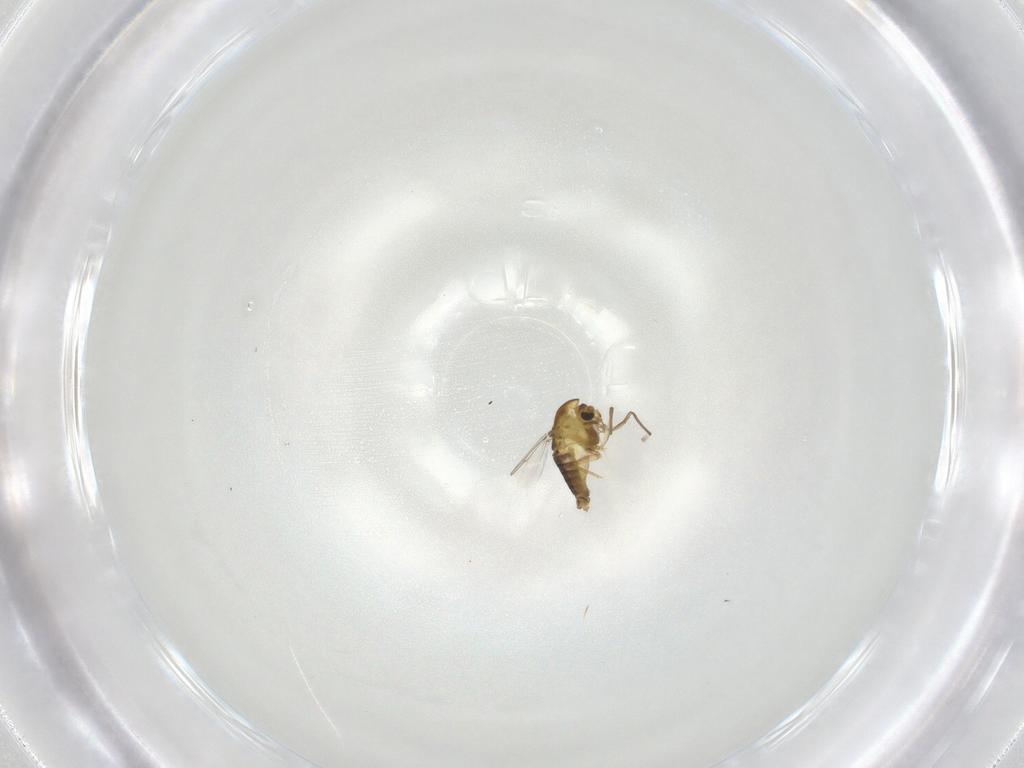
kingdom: Animalia
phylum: Arthropoda
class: Insecta
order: Diptera
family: Chironomidae
